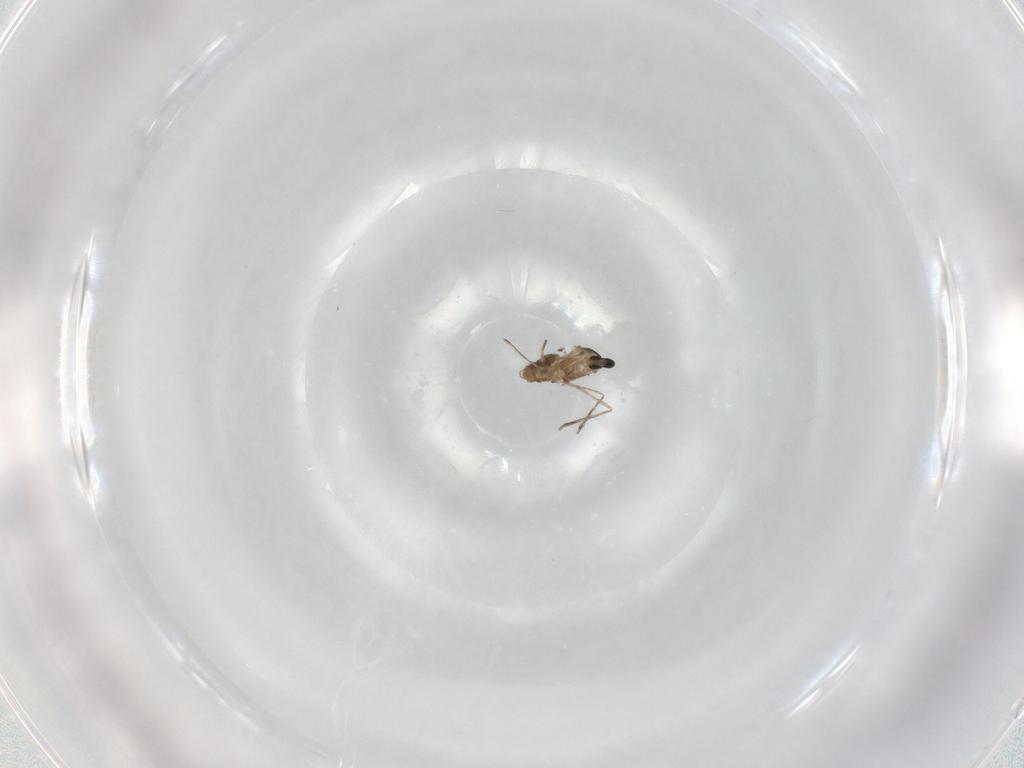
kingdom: Animalia
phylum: Arthropoda
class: Insecta
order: Diptera
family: Cecidomyiidae
